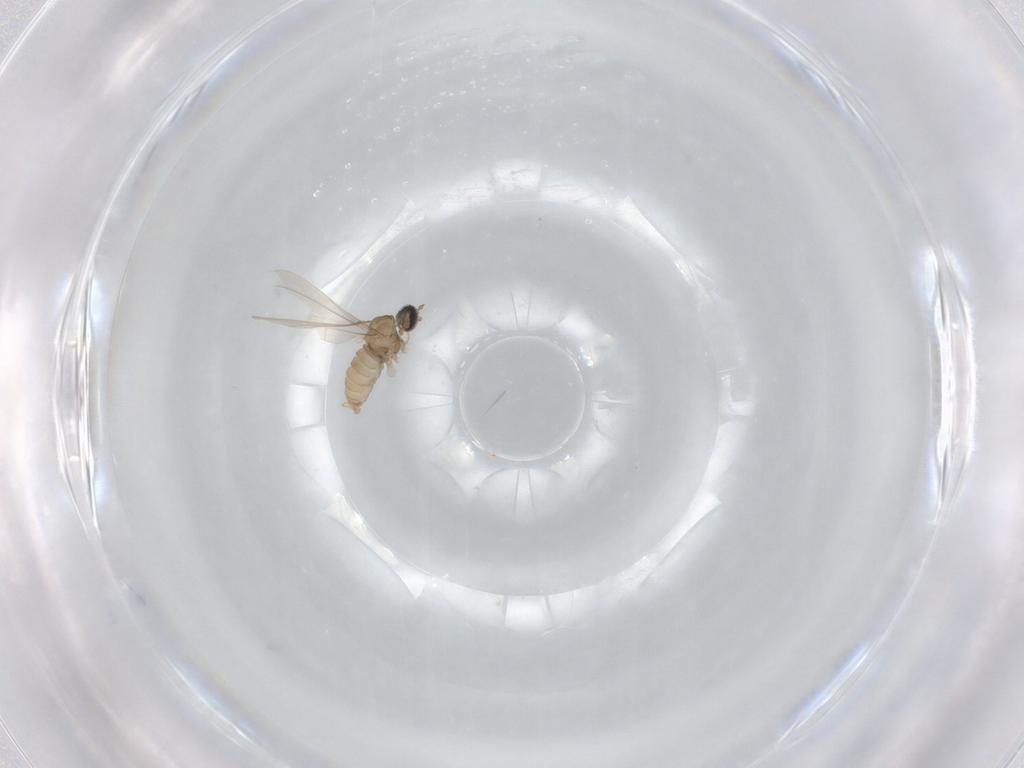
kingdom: Animalia
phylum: Arthropoda
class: Insecta
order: Diptera
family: Cecidomyiidae
